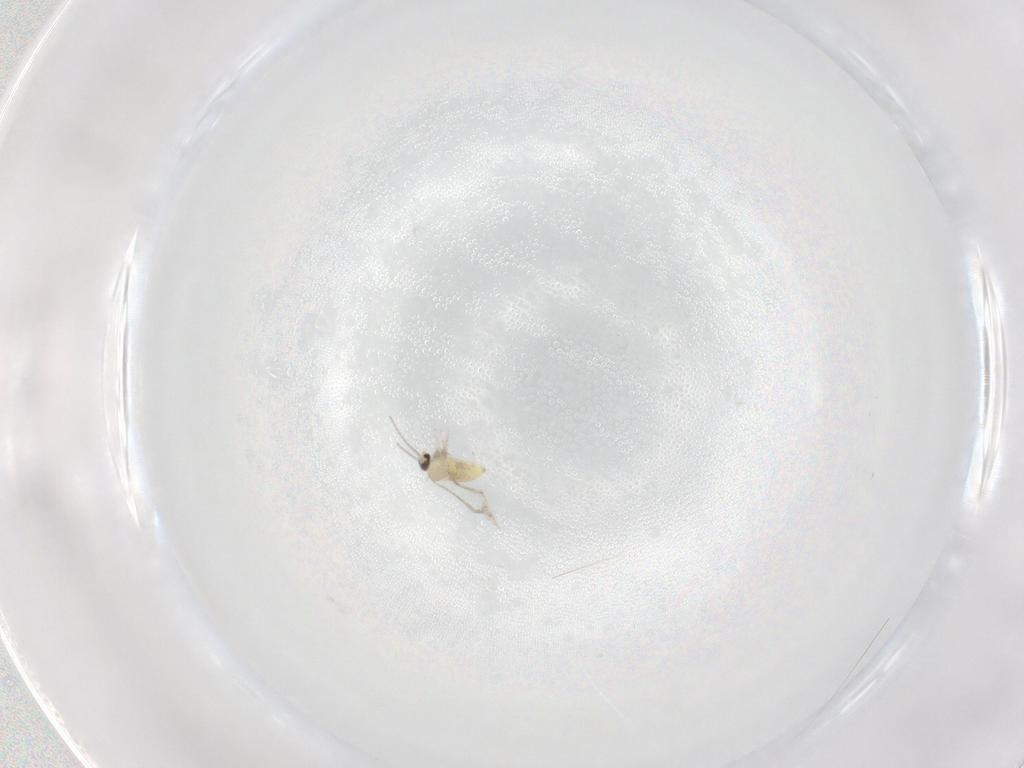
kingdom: Animalia
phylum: Arthropoda
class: Insecta
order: Diptera
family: Cecidomyiidae
